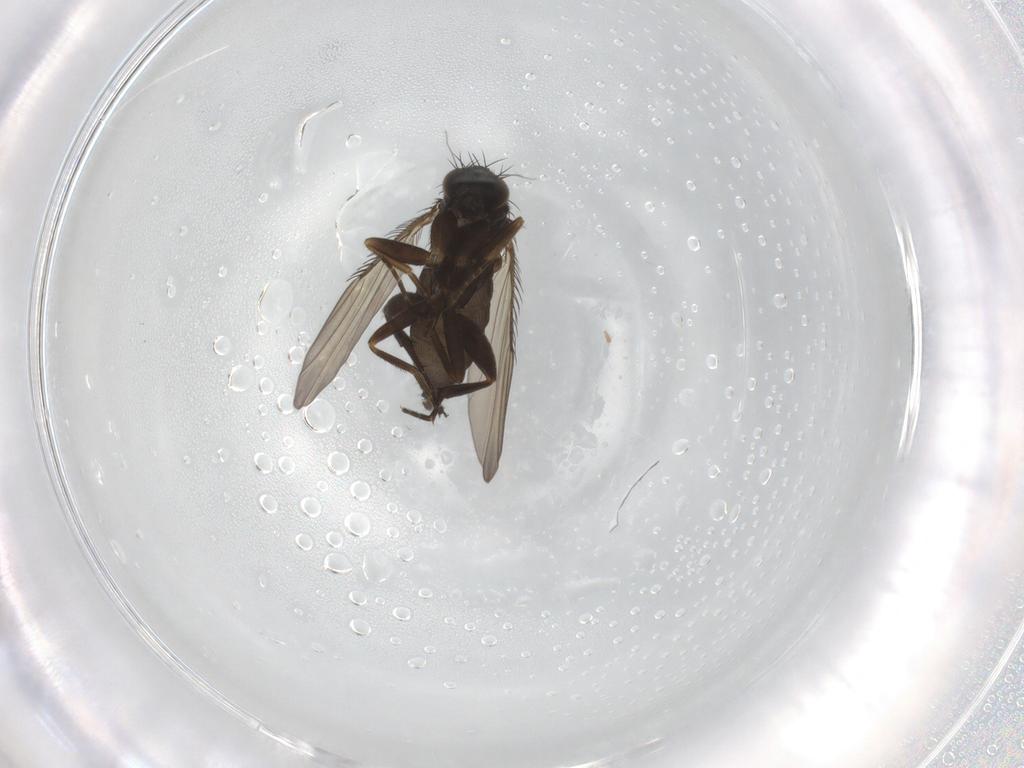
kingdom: Animalia
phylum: Arthropoda
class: Insecta
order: Diptera
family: Phoridae
